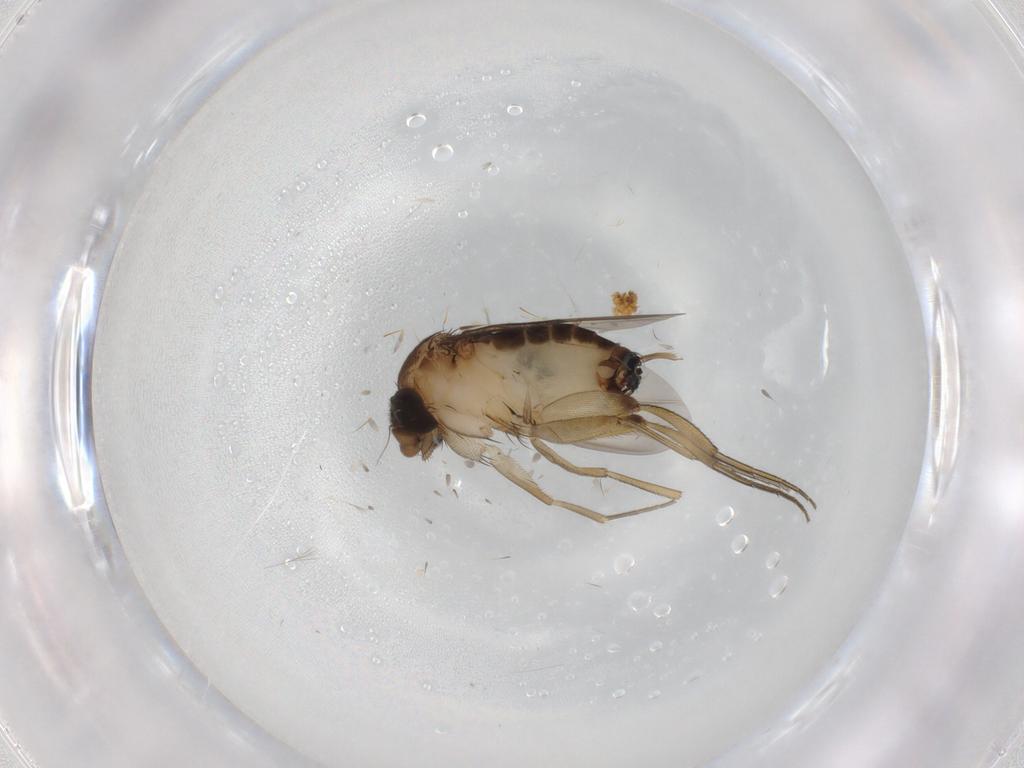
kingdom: Animalia
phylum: Arthropoda
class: Insecta
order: Diptera
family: Phoridae
